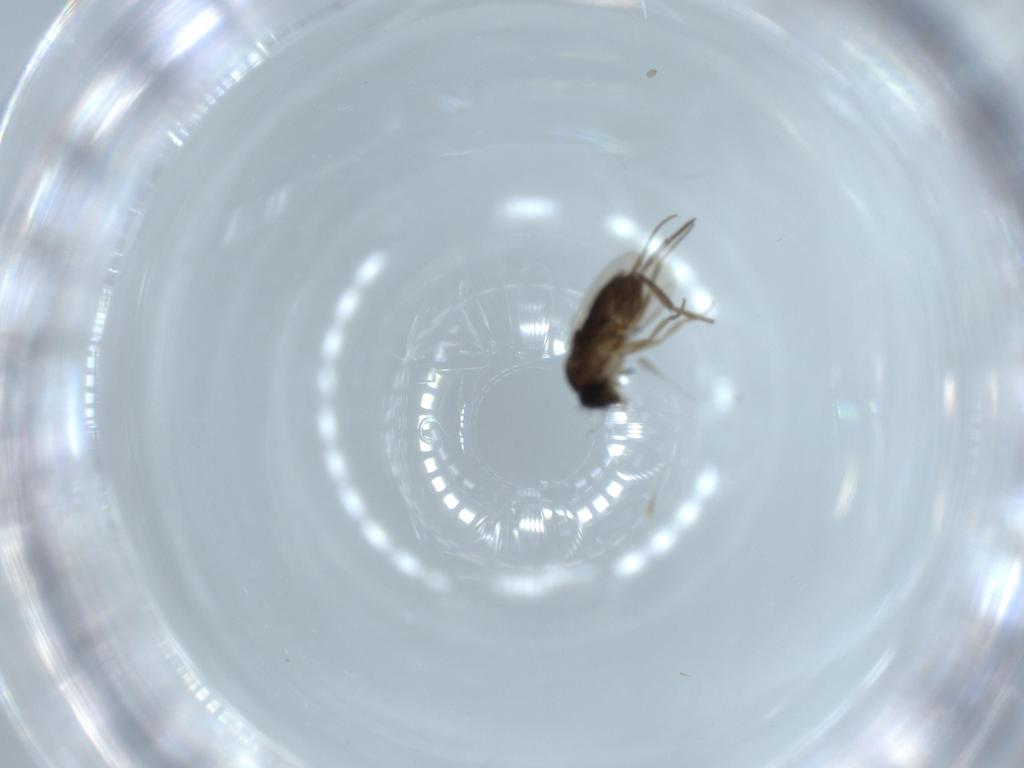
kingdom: Animalia
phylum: Arthropoda
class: Insecta
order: Diptera
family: Phoridae
